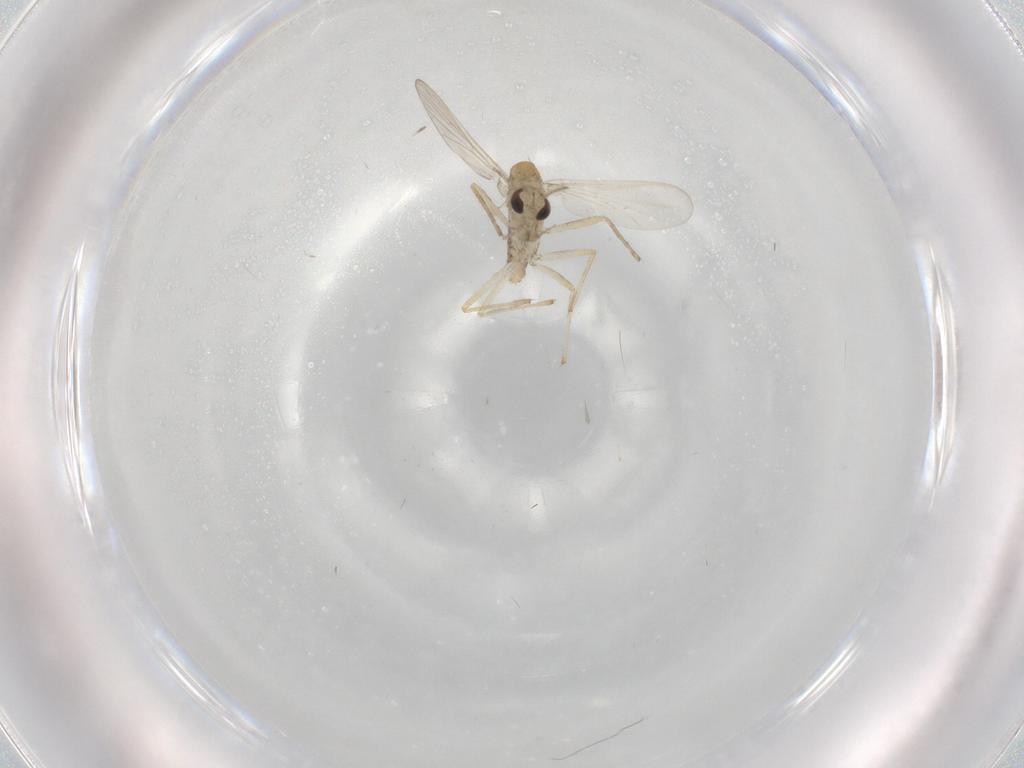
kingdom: Animalia
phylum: Arthropoda
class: Insecta
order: Diptera
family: Chironomidae
